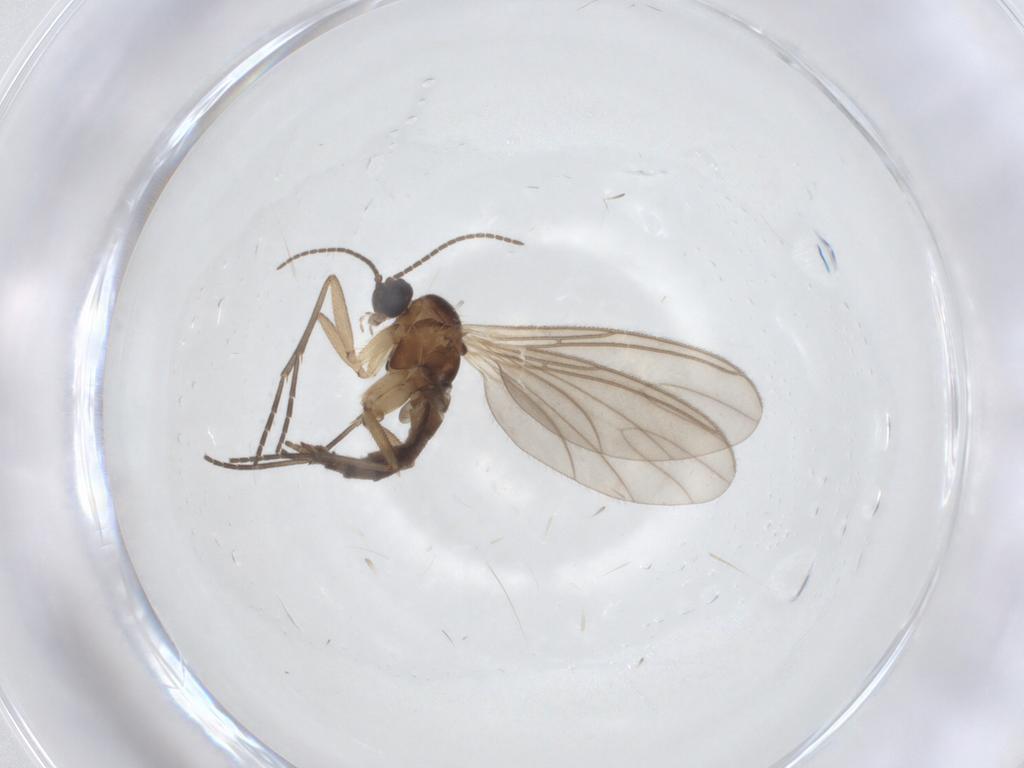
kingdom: Animalia
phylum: Arthropoda
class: Insecta
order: Diptera
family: Sciaridae
